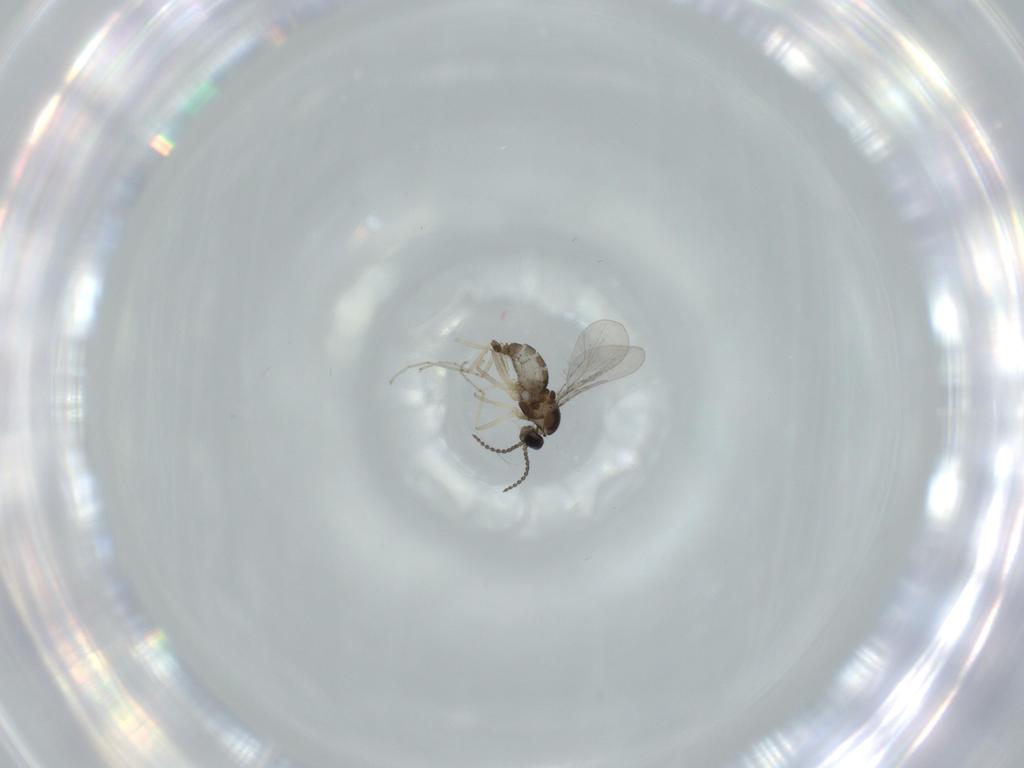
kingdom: Animalia
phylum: Arthropoda
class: Insecta
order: Diptera
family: Cecidomyiidae
